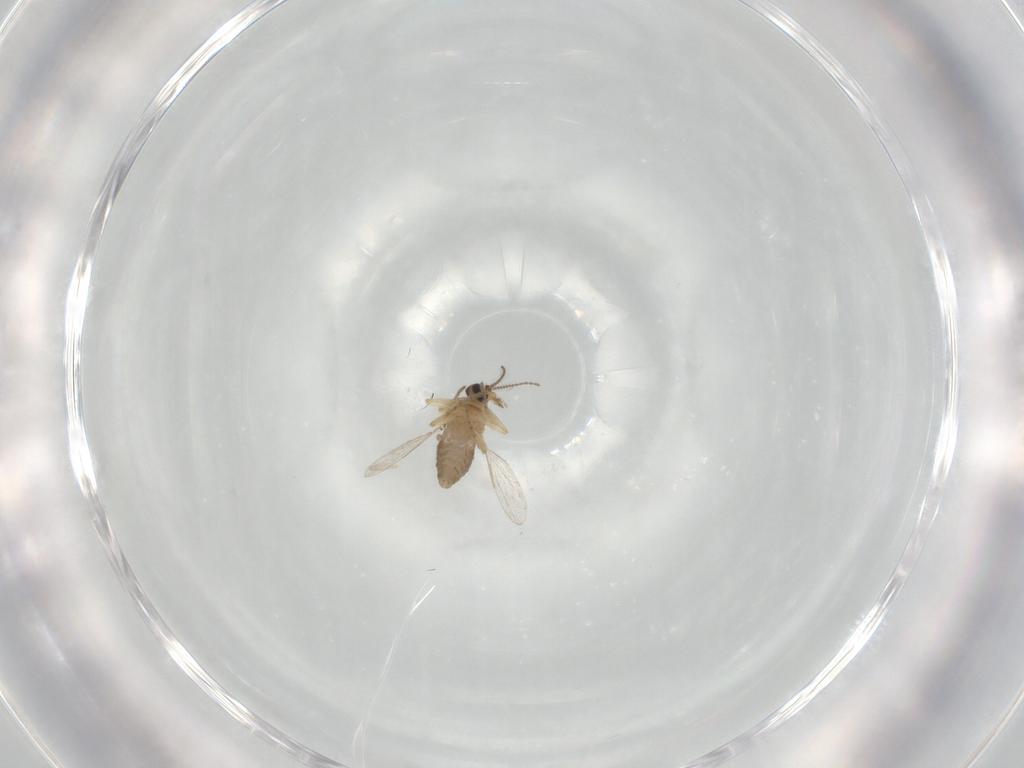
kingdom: Animalia
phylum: Arthropoda
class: Insecta
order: Diptera
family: Ceratopogonidae
